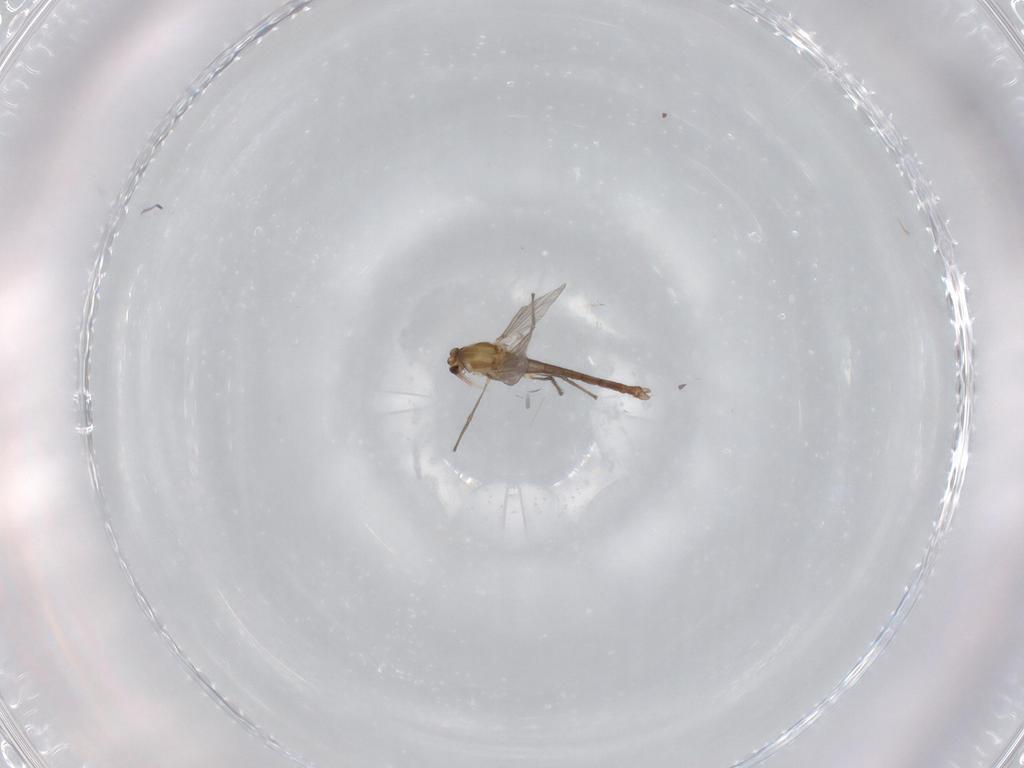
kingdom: Animalia
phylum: Arthropoda
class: Insecta
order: Diptera
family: Chironomidae
